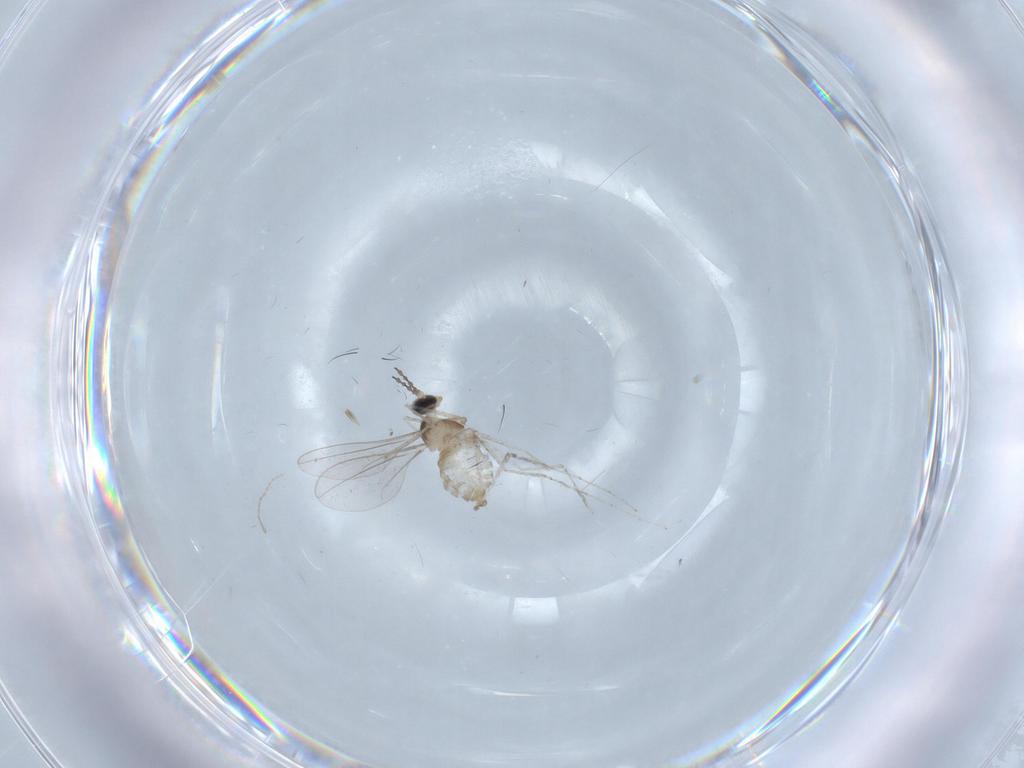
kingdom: Animalia
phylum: Arthropoda
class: Insecta
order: Diptera
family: Cecidomyiidae
